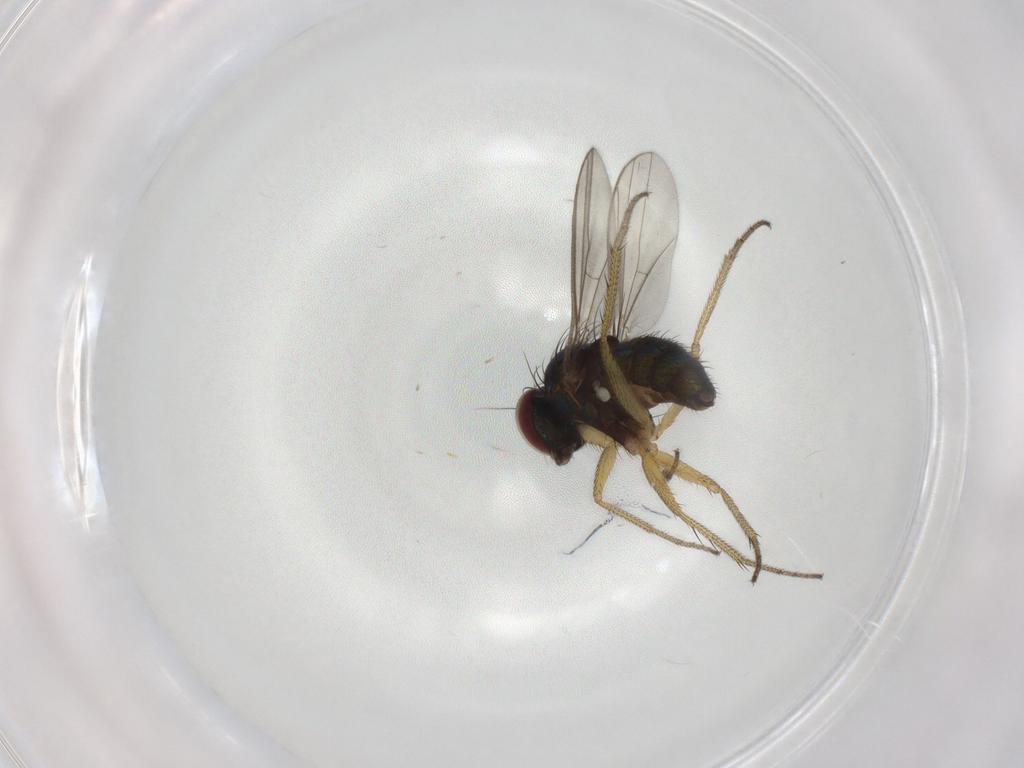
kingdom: Animalia
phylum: Arthropoda
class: Insecta
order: Diptera
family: Dolichopodidae
